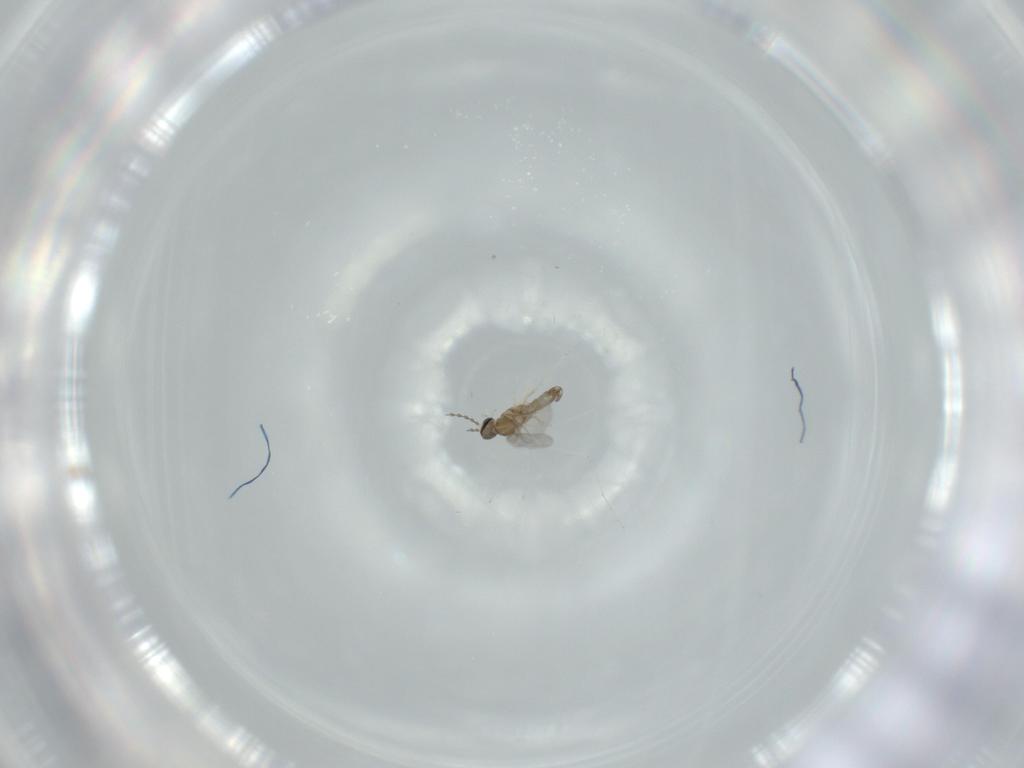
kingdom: Animalia
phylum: Arthropoda
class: Insecta
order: Diptera
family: Cecidomyiidae
